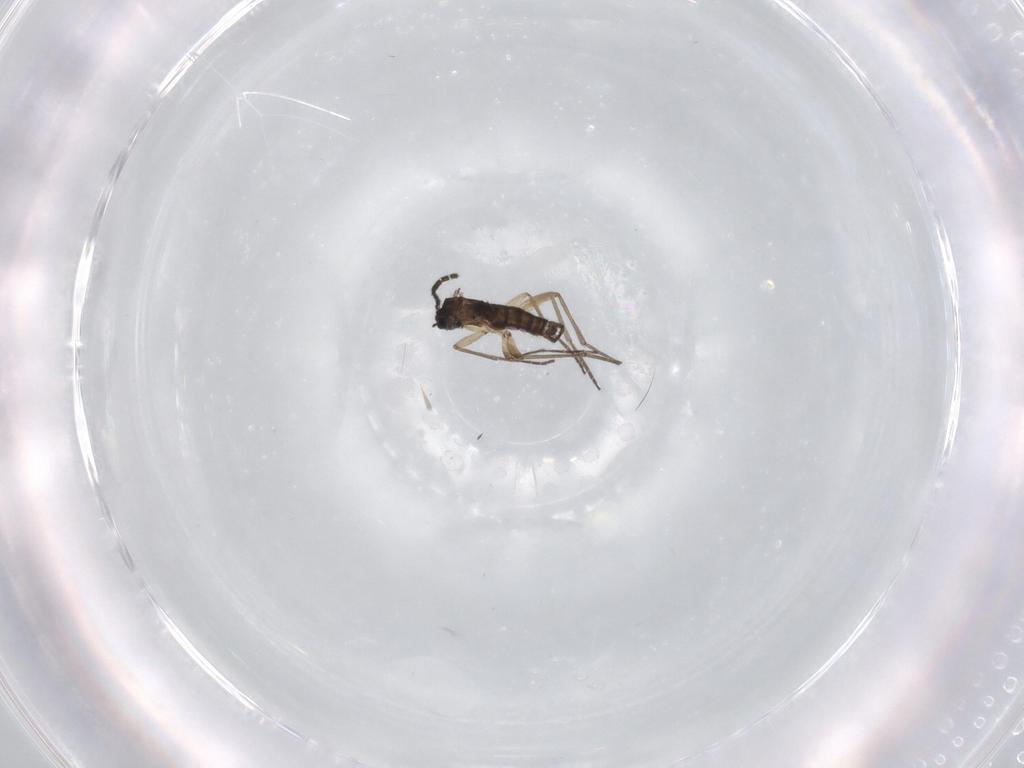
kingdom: Animalia
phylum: Arthropoda
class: Insecta
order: Diptera
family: Sciaridae
